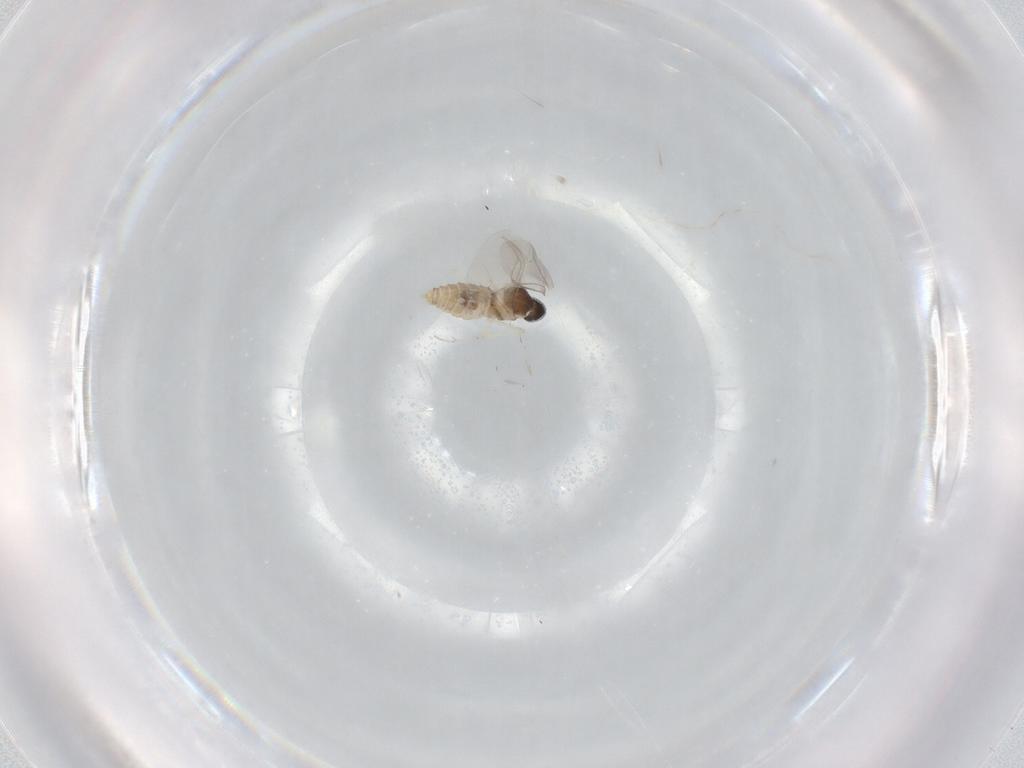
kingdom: Animalia
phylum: Arthropoda
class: Insecta
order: Diptera
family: Cecidomyiidae
